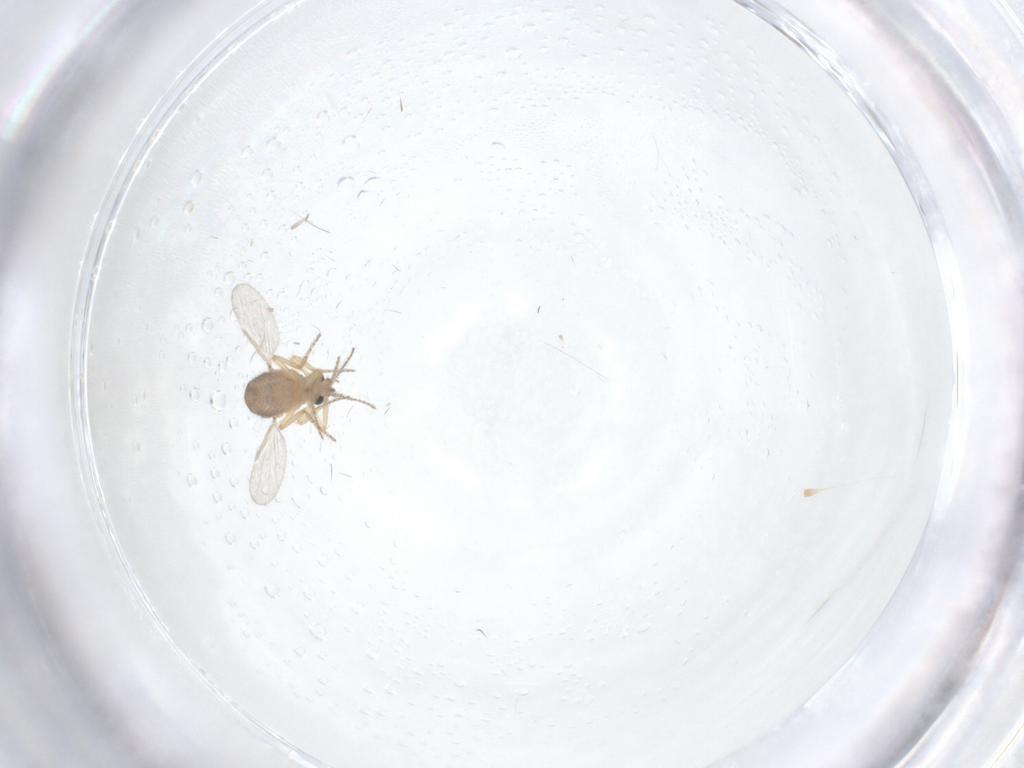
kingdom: Animalia
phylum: Arthropoda
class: Insecta
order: Diptera
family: Ceratopogonidae
